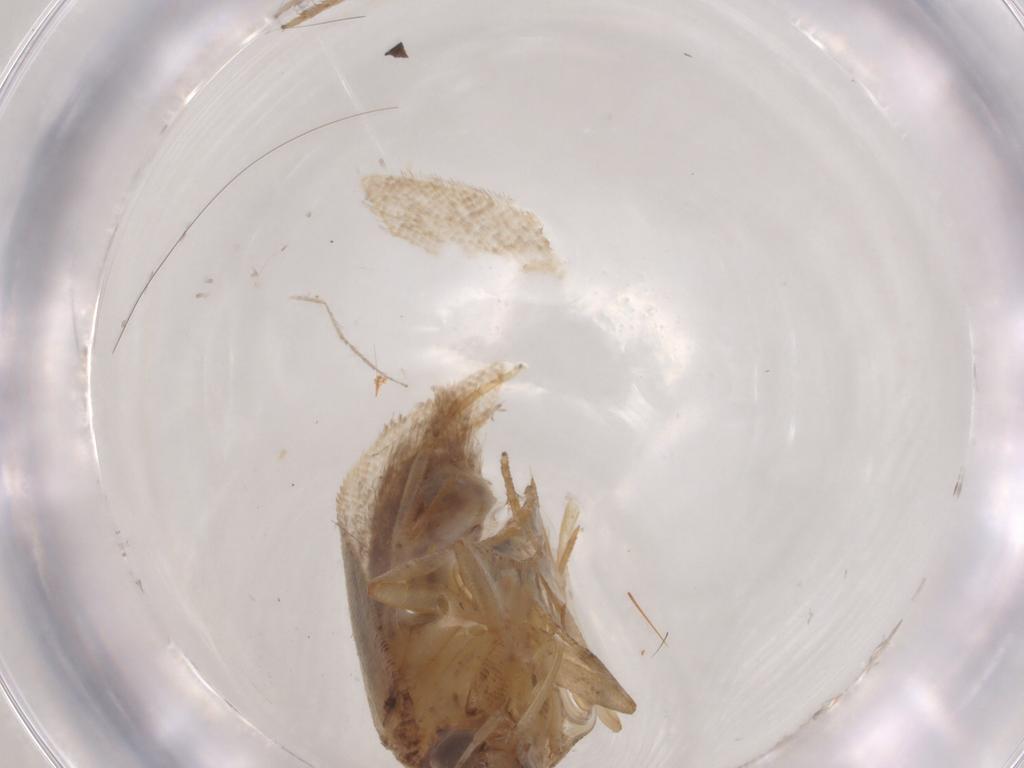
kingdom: Animalia
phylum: Arthropoda
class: Insecta
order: Lepidoptera
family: Gelechiidae
